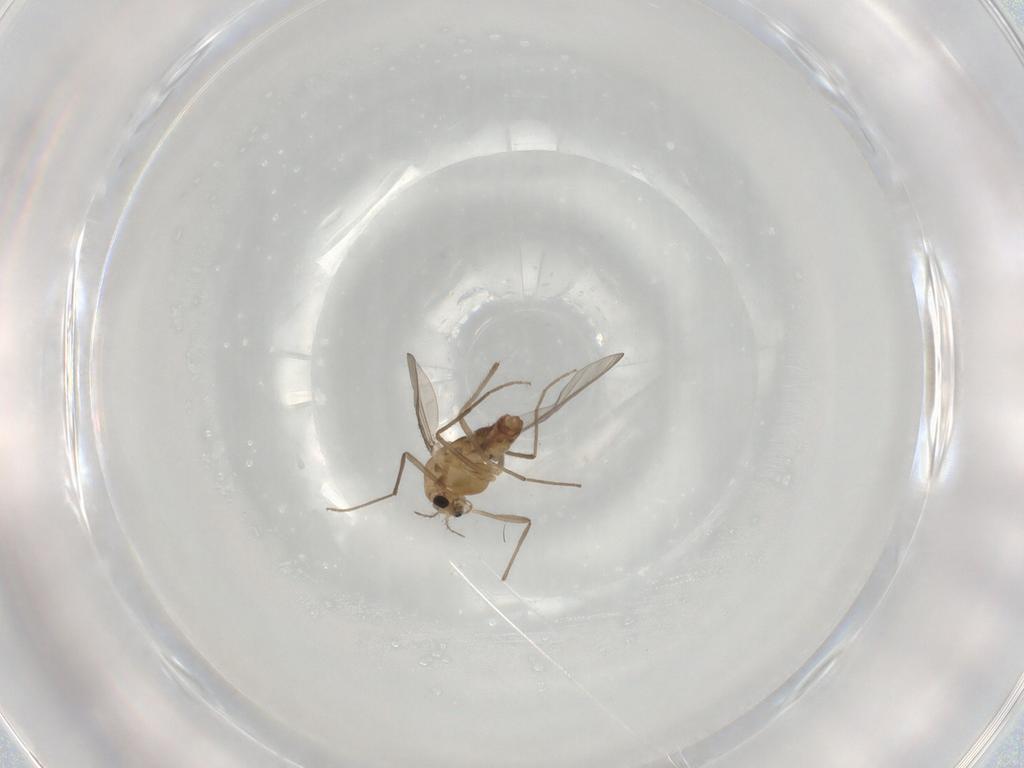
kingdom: Animalia
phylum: Arthropoda
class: Insecta
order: Diptera
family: Chironomidae
